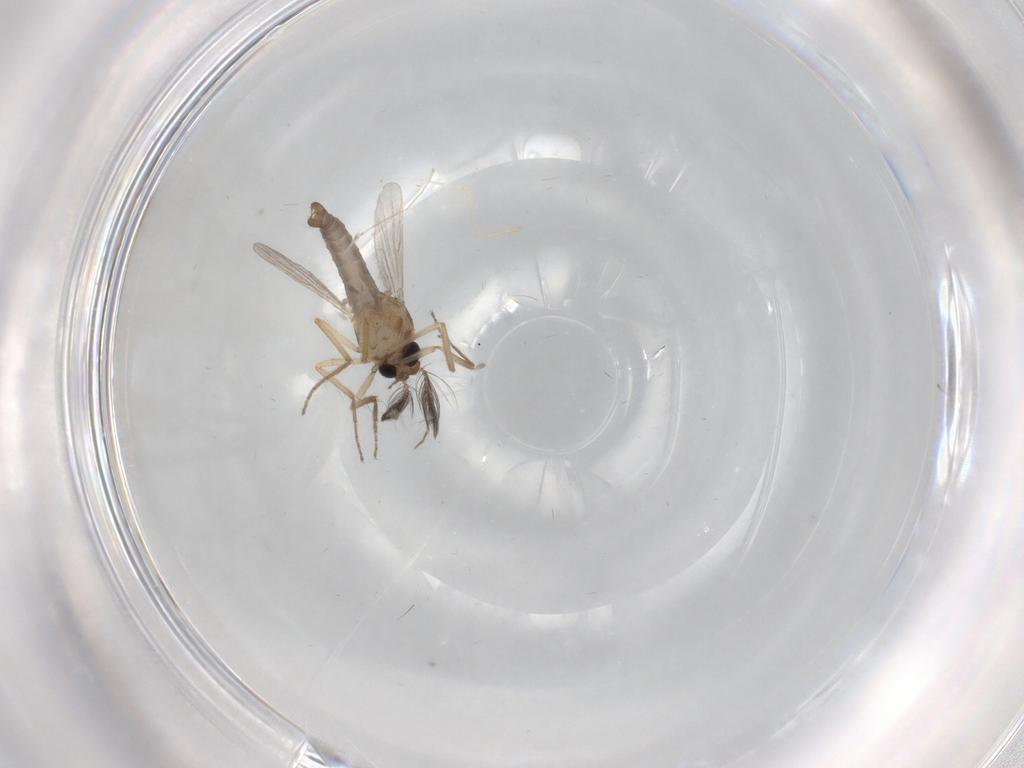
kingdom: Animalia
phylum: Arthropoda
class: Insecta
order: Diptera
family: Ceratopogonidae
